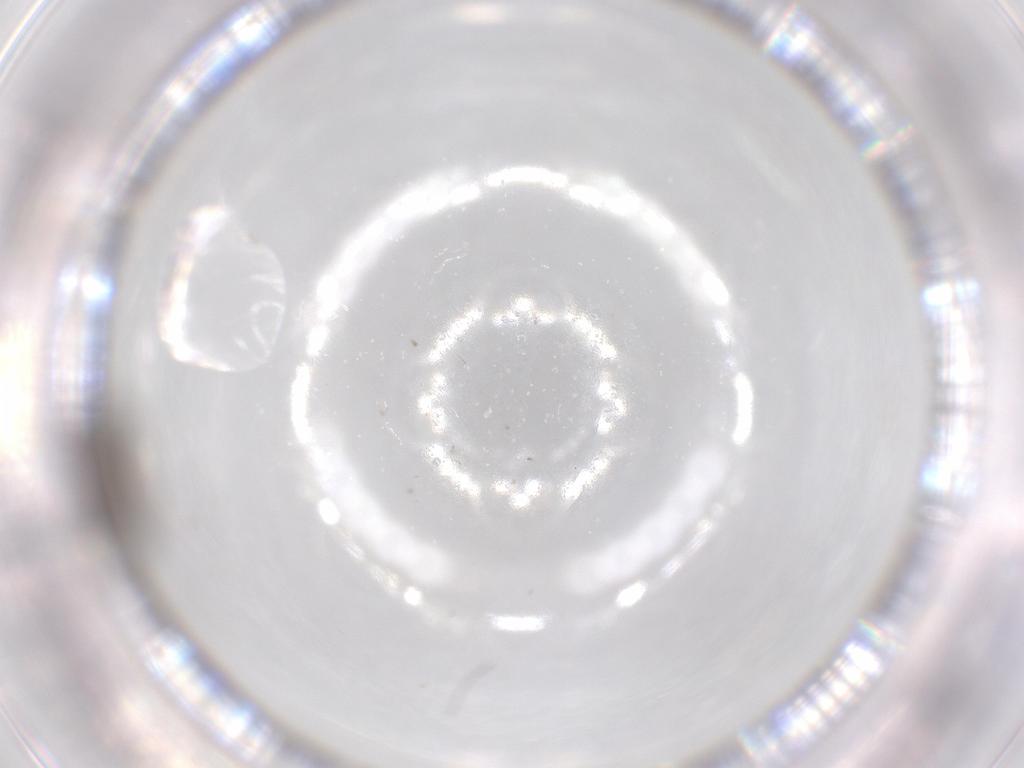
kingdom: Animalia
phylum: Arthropoda
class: Insecta
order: Hymenoptera
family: Scelionidae
